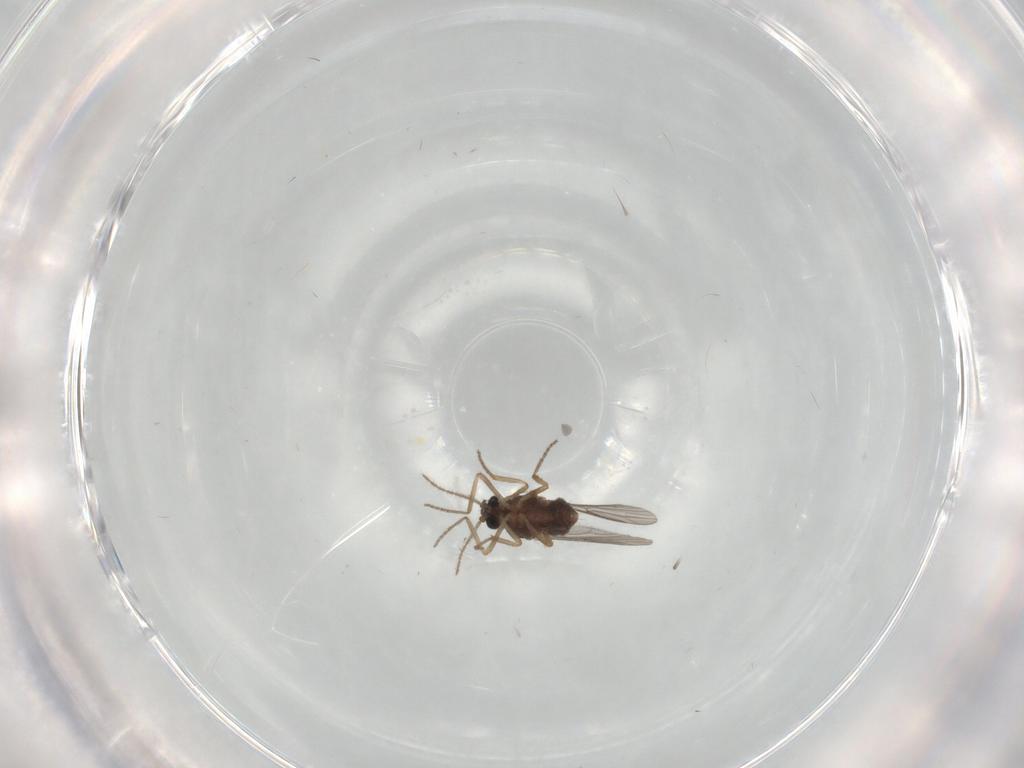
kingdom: Animalia
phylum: Arthropoda
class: Insecta
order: Diptera
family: Ceratopogonidae
